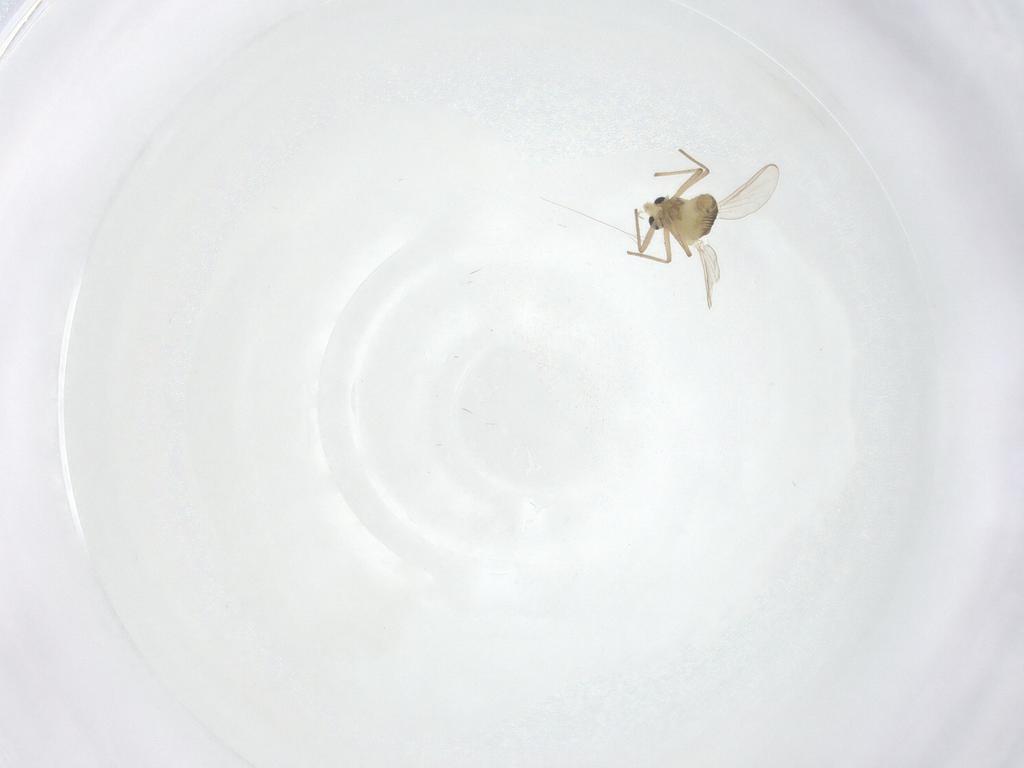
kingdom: Animalia
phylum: Arthropoda
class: Insecta
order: Diptera
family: Chironomidae
